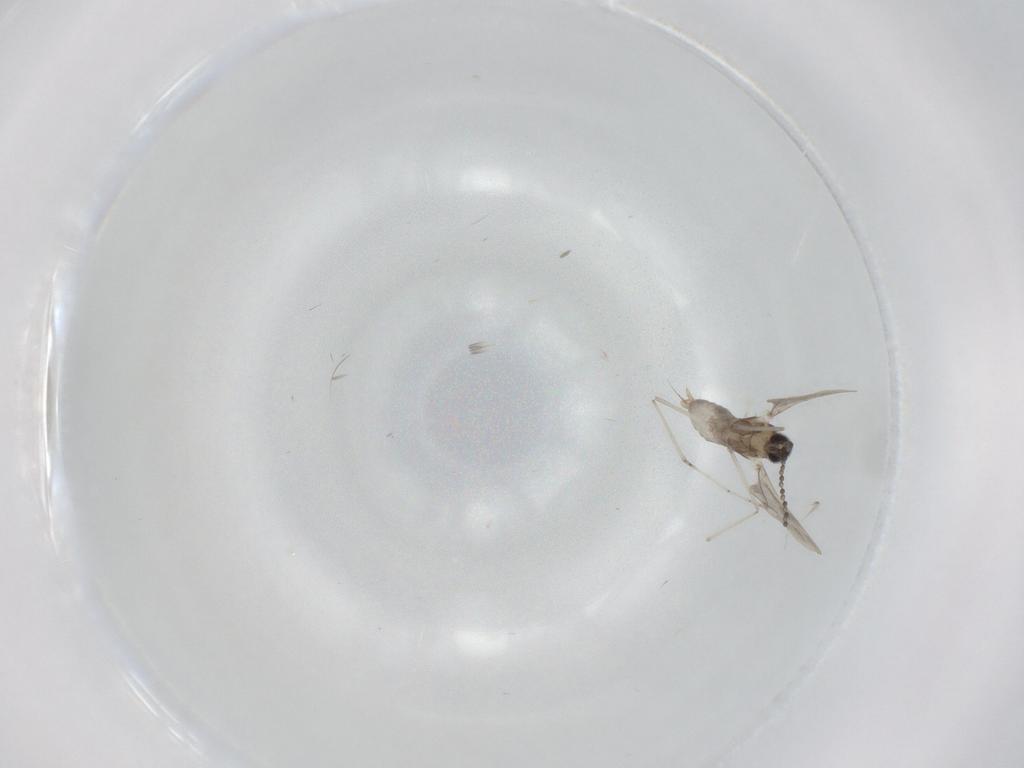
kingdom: Animalia
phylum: Arthropoda
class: Insecta
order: Diptera
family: Cecidomyiidae
